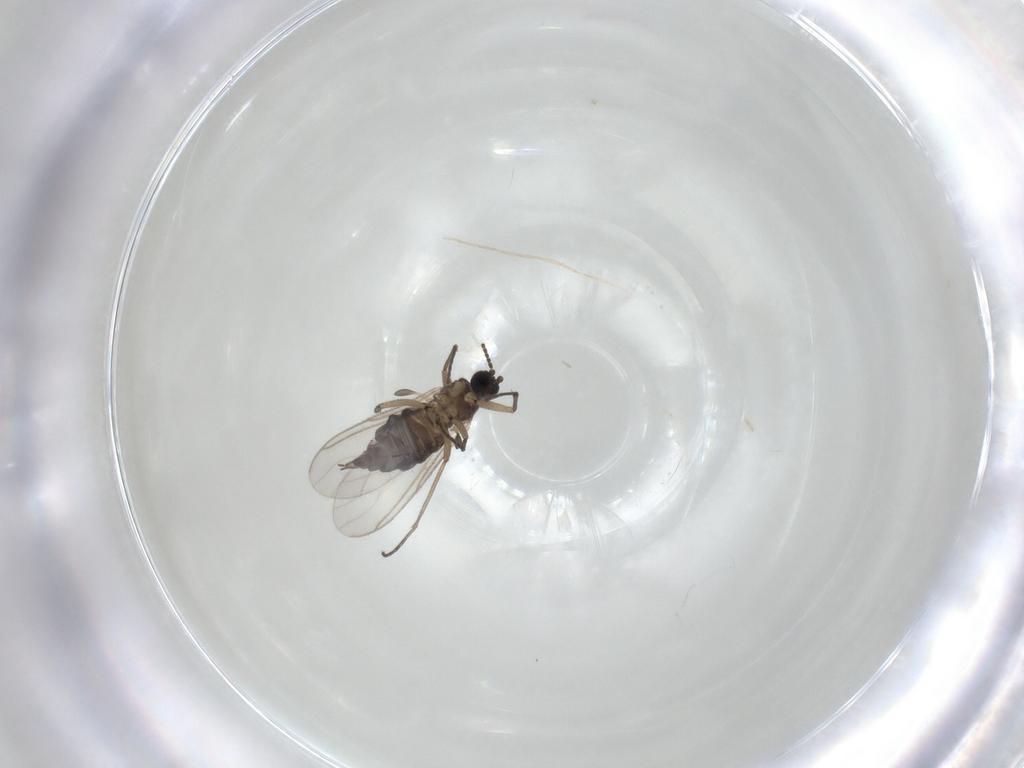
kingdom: Animalia
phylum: Arthropoda
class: Insecta
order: Diptera
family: Sciaridae
